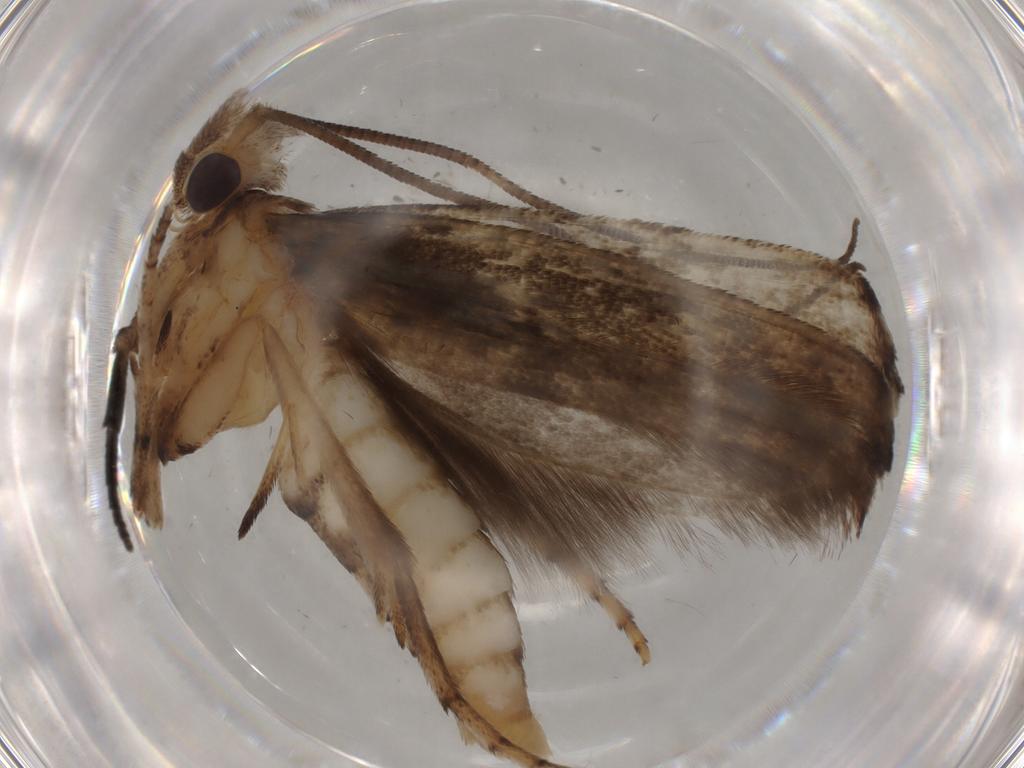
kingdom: Animalia
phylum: Arthropoda
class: Insecta
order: Lepidoptera
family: Yponomeutidae
